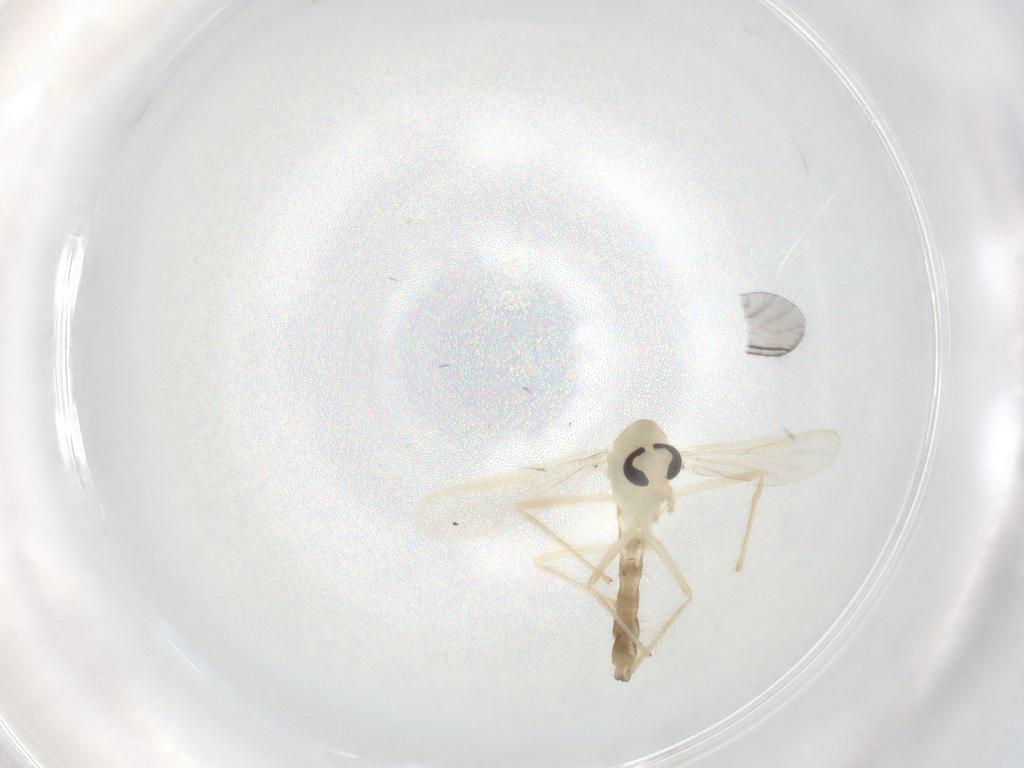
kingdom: Animalia
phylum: Arthropoda
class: Insecta
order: Diptera
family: Chironomidae
